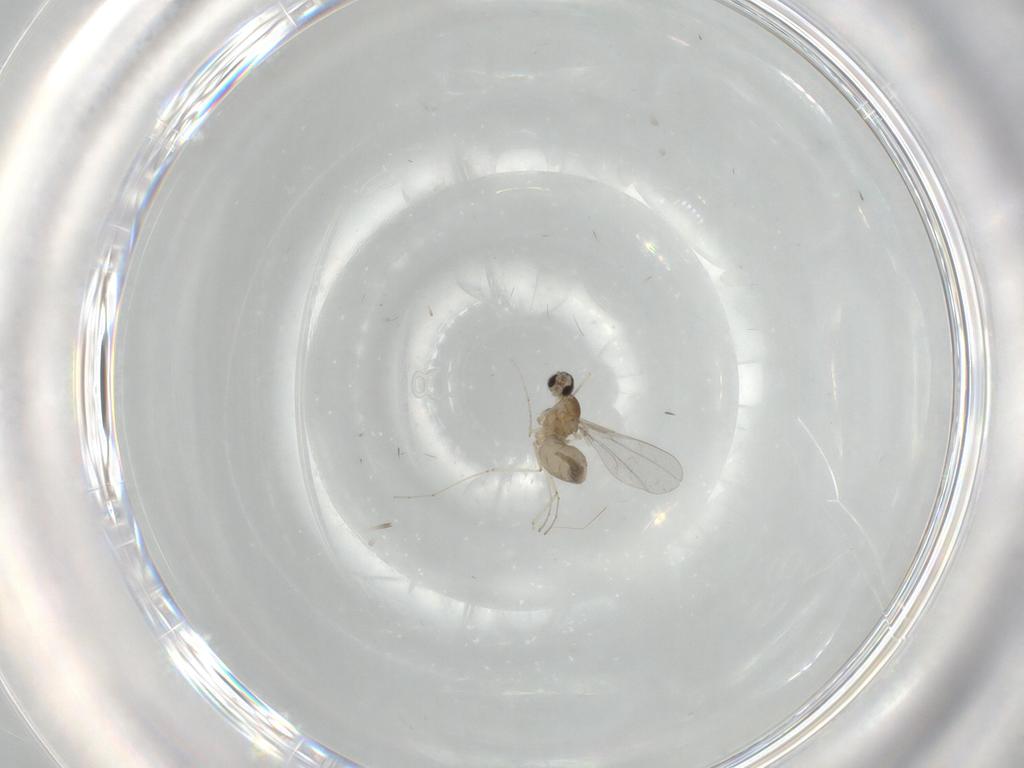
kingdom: Animalia
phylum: Arthropoda
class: Insecta
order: Diptera
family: Cecidomyiidae
